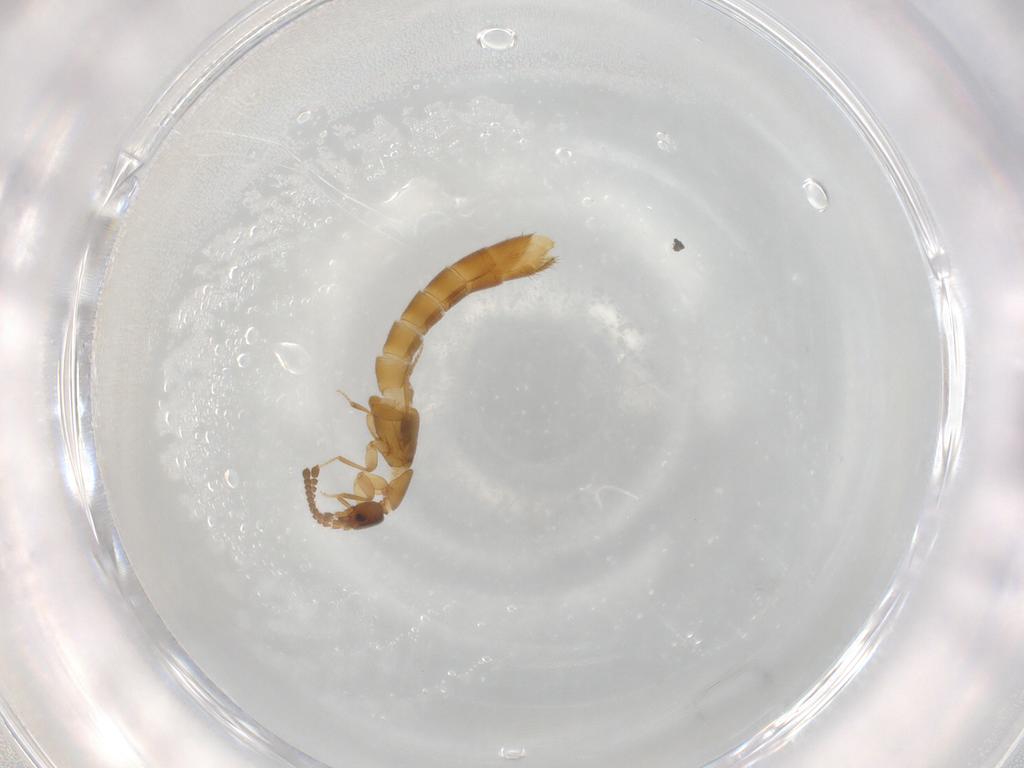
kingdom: Animalia
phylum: Arthropoda
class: Insecta
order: Coleoptera
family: Staphylinidae
